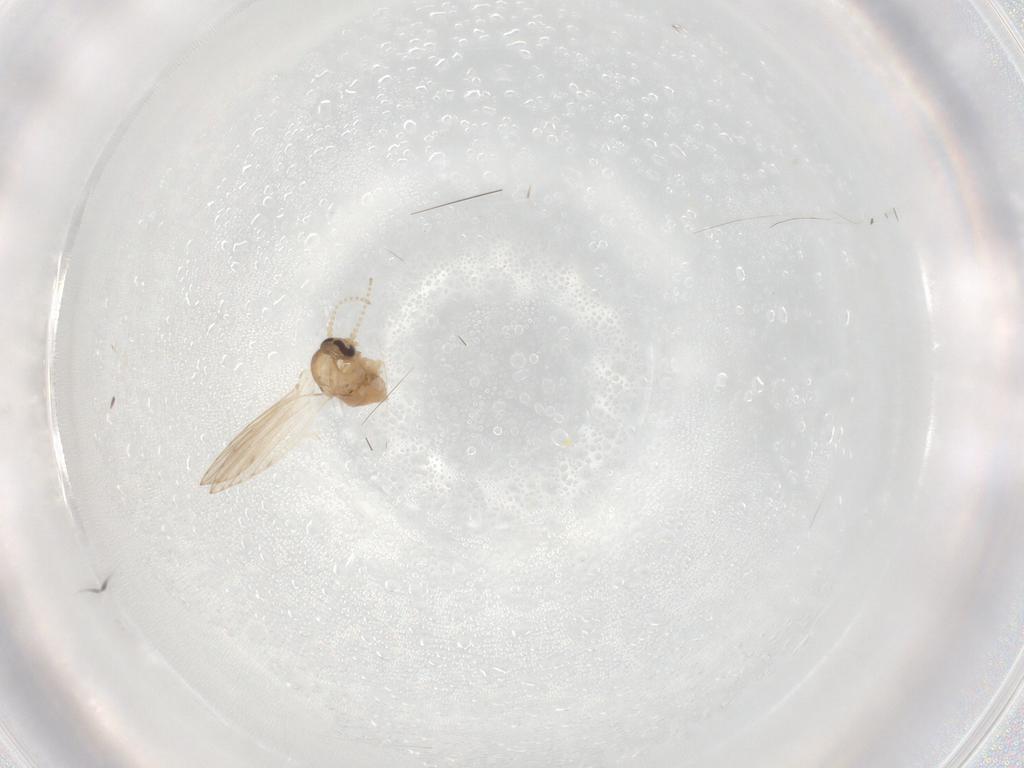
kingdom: Animalia
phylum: Arthropoda
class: Insecta
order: Diptera
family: Psychodidae
